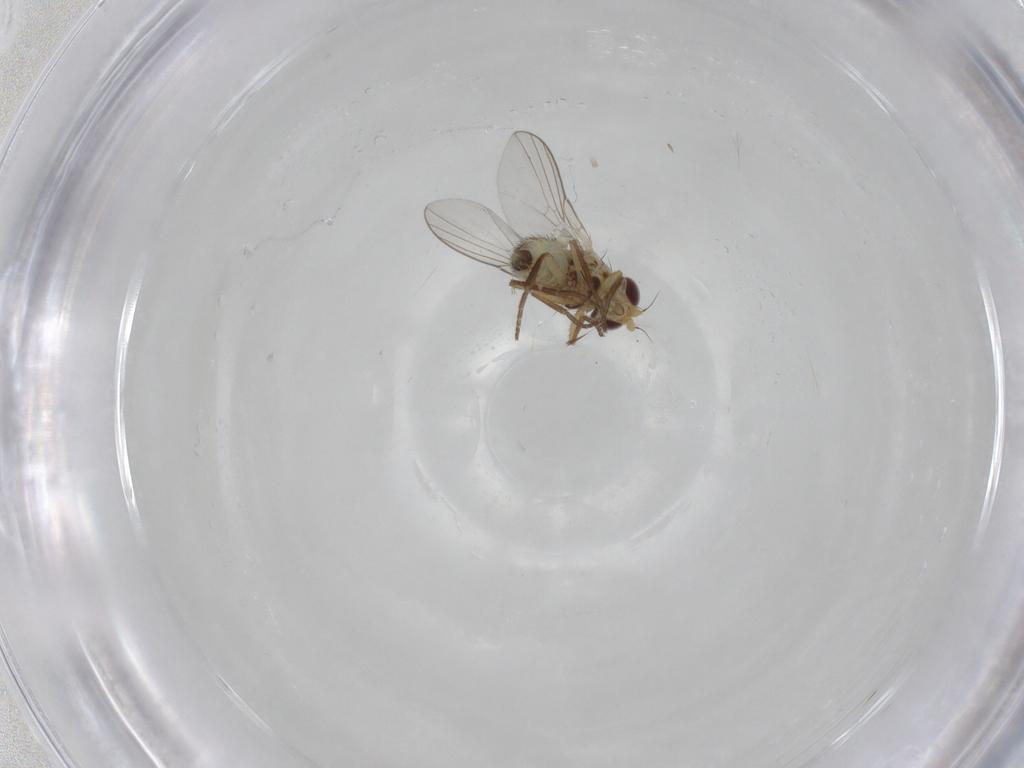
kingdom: Animalia
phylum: Arthropoda
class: Insecta
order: Diptera
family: Agromyzidae
